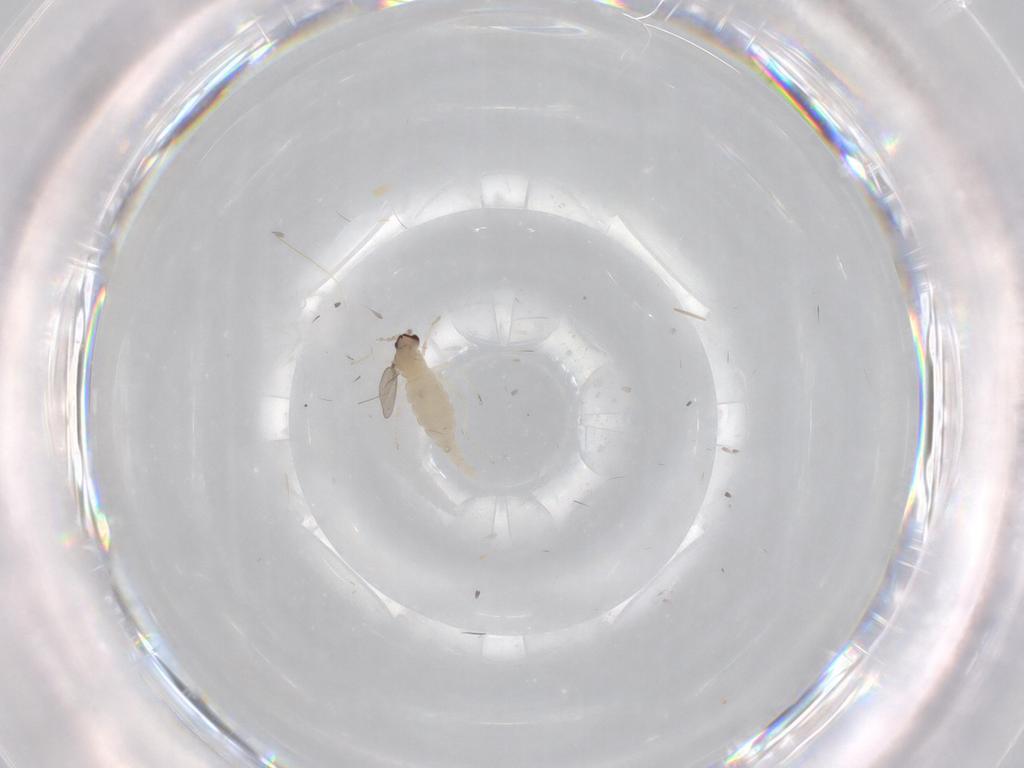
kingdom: Animalia
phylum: Arthropoda
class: Insecta
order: Diptera
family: Cecidomyiidae
